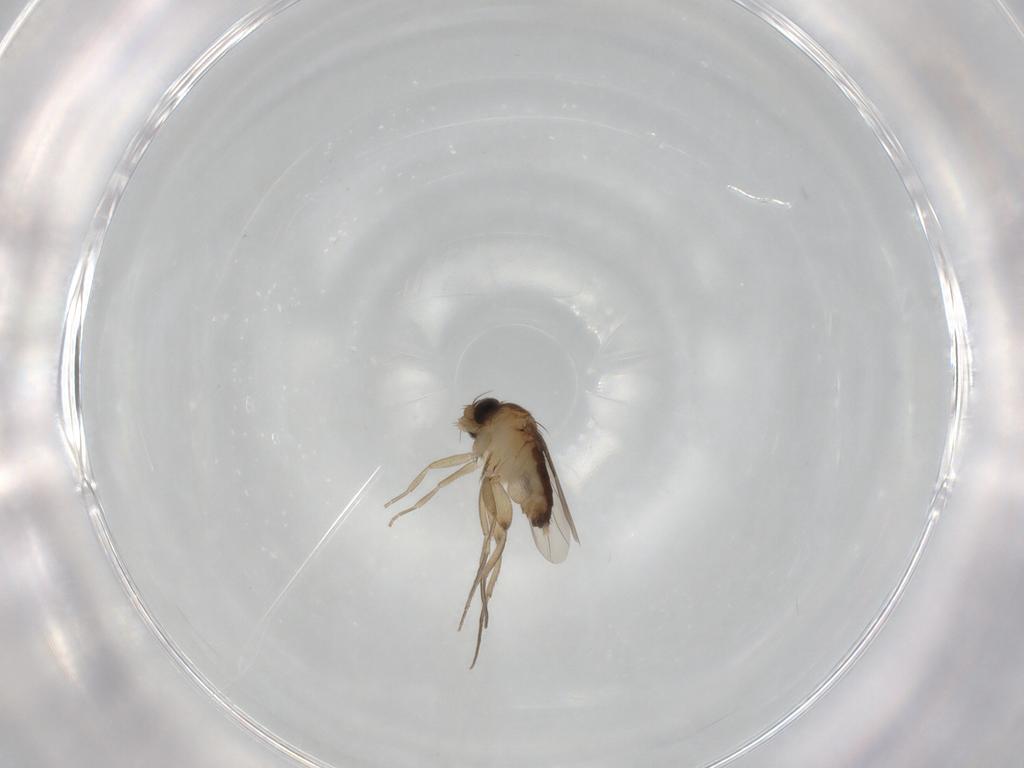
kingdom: Animalia
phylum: Arthropoda
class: Insecta
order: Diptera
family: Phoridae
